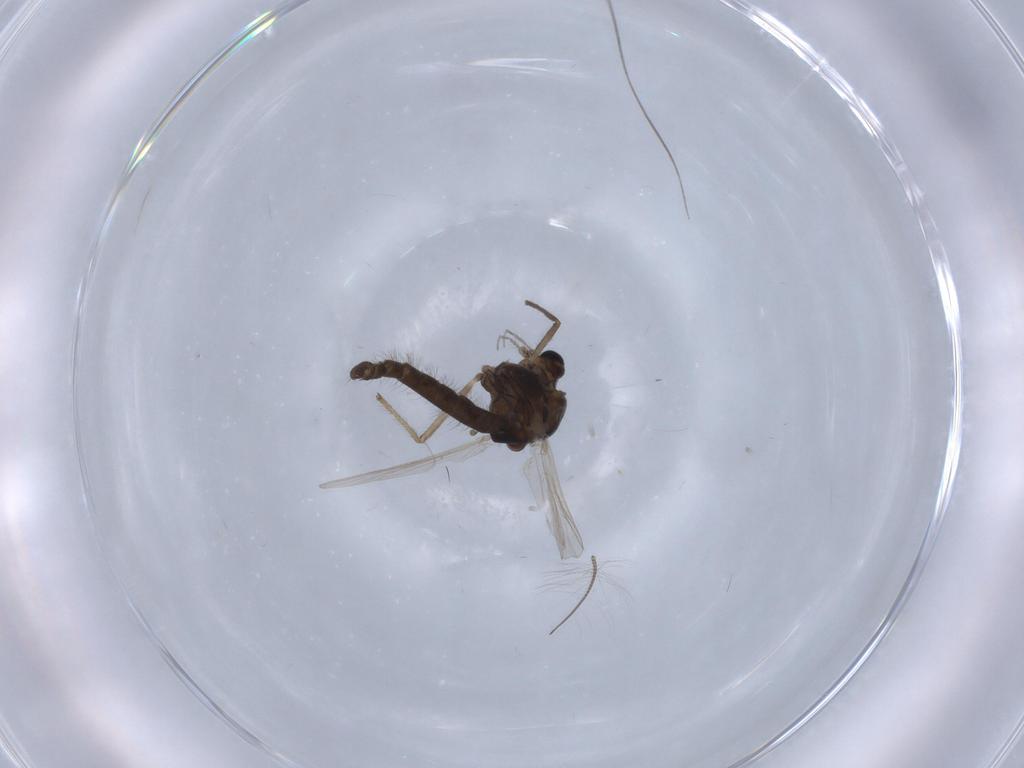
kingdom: Animalia
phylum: Arthropoda
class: Insecta
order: Diptera
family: Chironomidae
